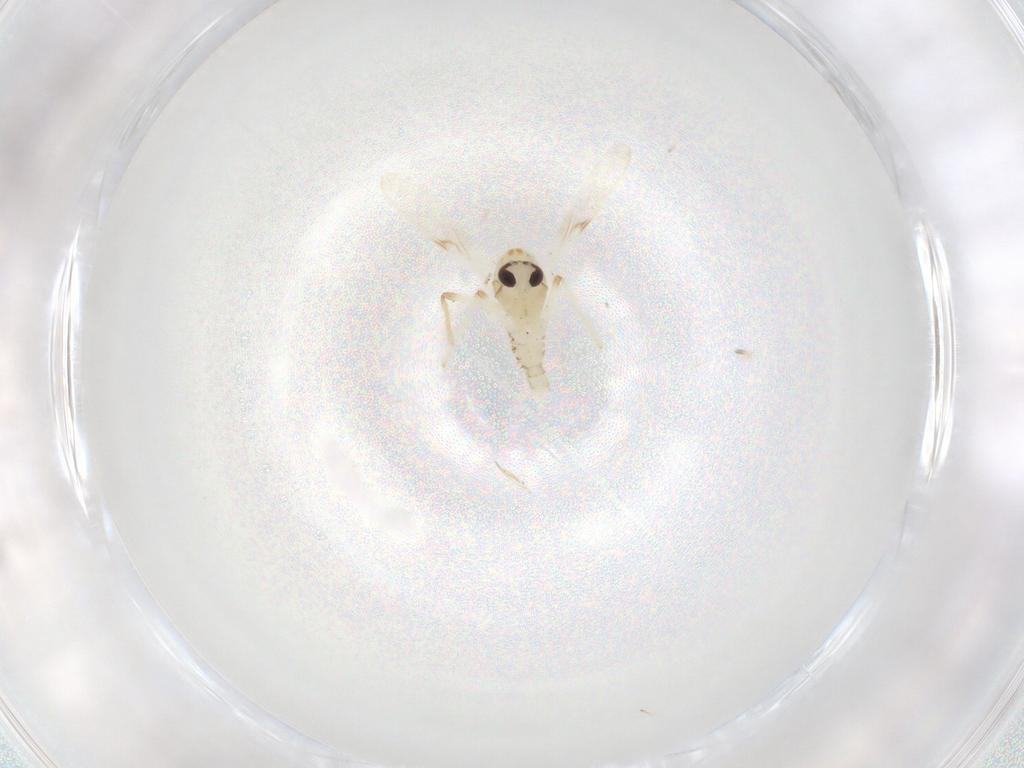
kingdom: Animalia
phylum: Arthropoda
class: Insecta
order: Diptera
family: Chironomidae
